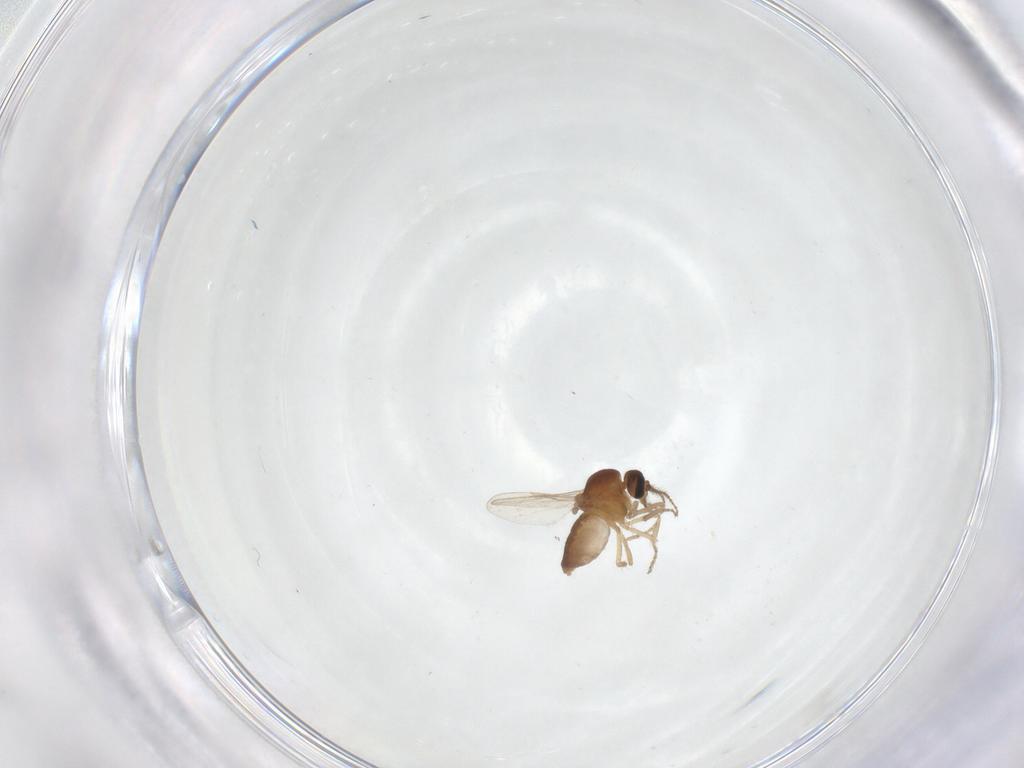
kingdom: Animalia
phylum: Arthropoda
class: Insecta
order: Diptera
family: Ceratopogonidae
